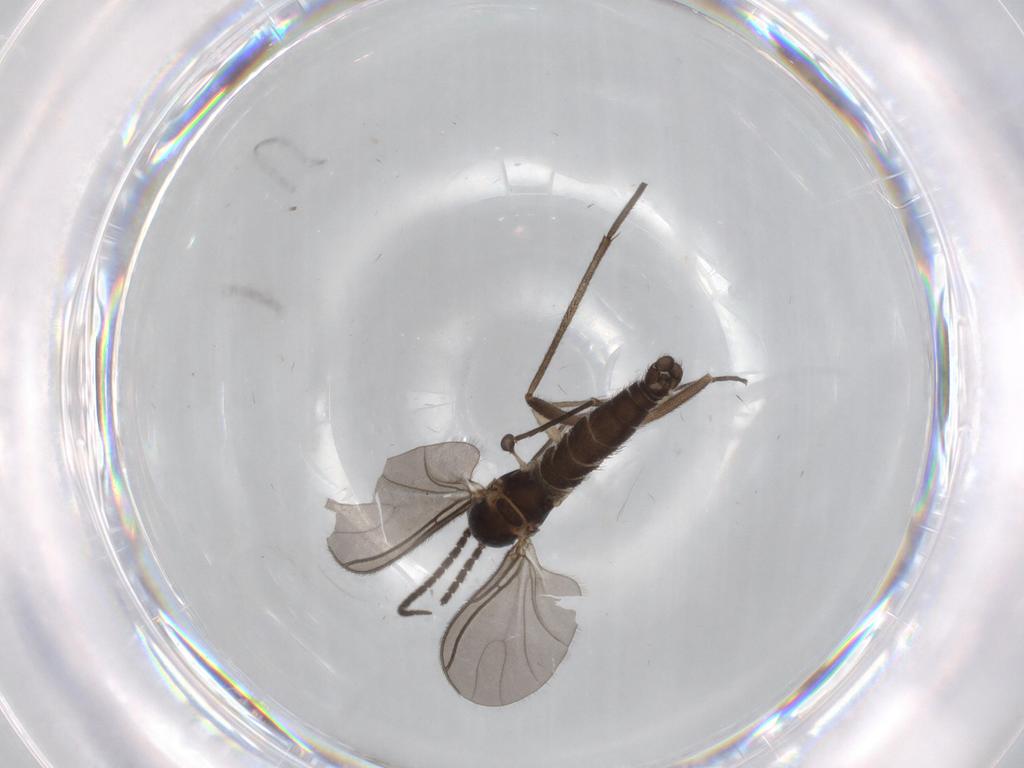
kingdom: Animalia
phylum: Arthropoda
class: Insecta
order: Diptera
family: Sciaridae
